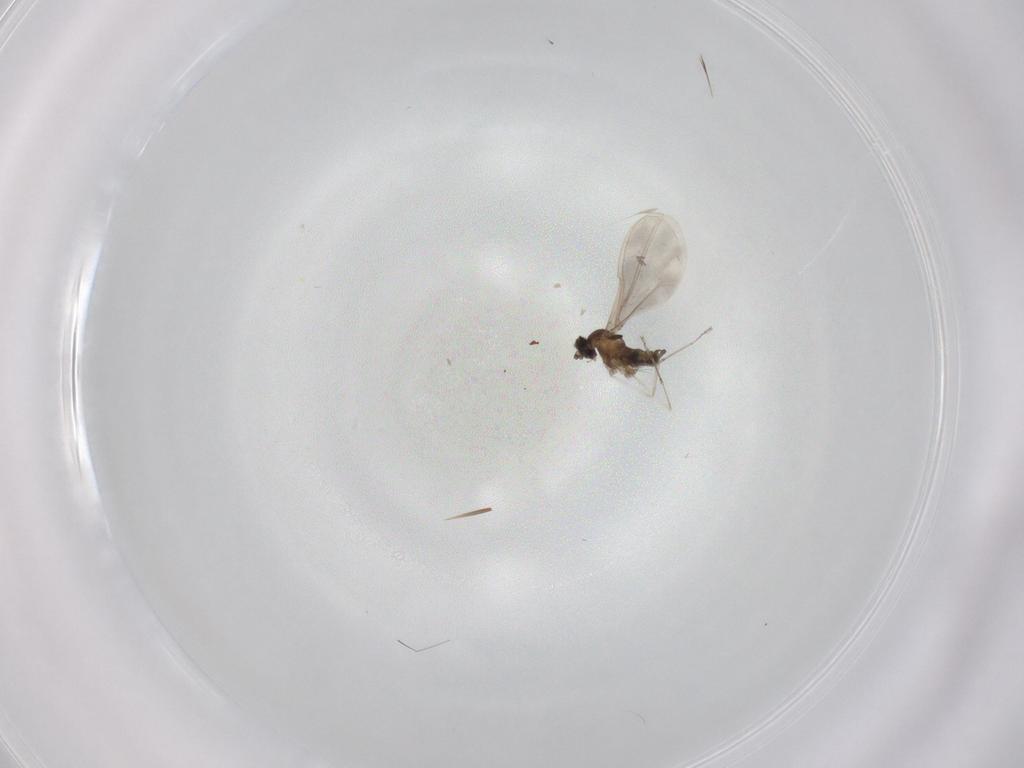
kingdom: Animalia
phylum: Arthropoda
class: Insecta
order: Diptera
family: Cecidomyiidae
